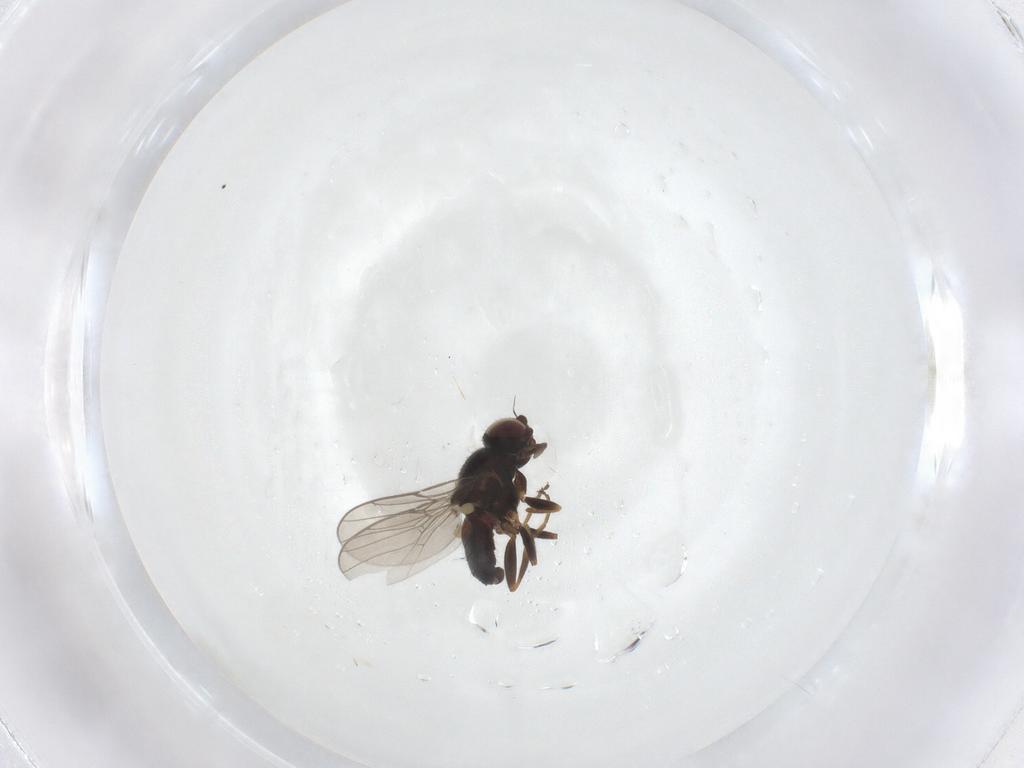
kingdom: Animalia
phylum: Arthropoda
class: Insecta
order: Diptera
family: Chloropidae
